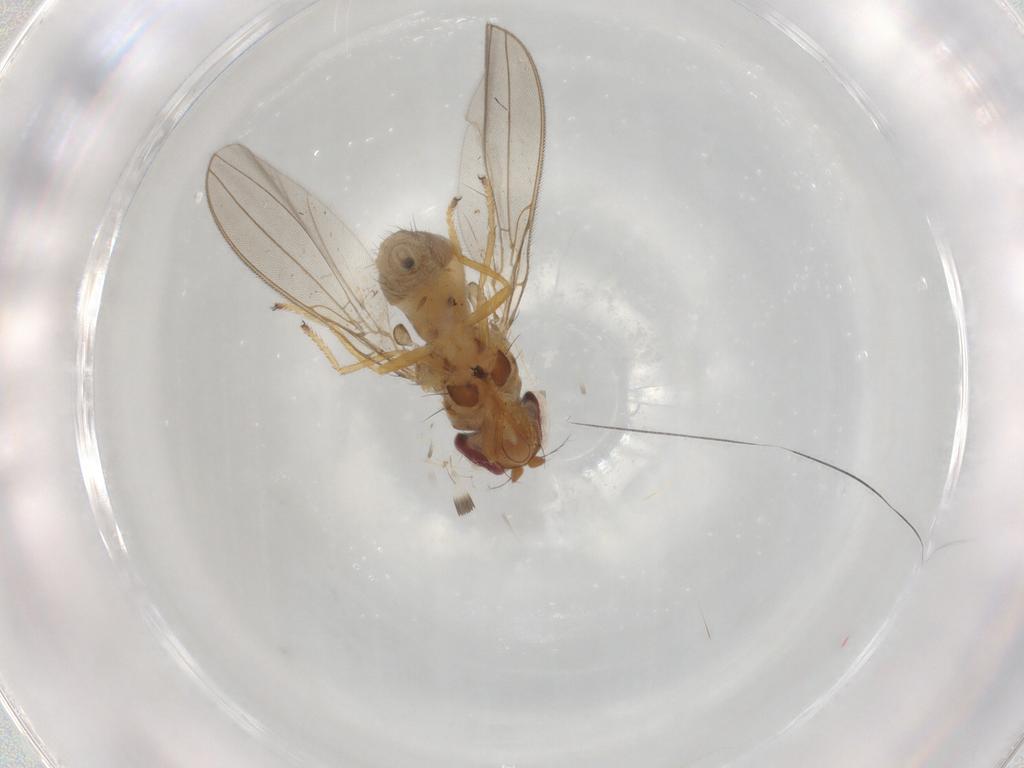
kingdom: Animalia
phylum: Arthropoda
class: Insecta
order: Diptera
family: Asteiidae
